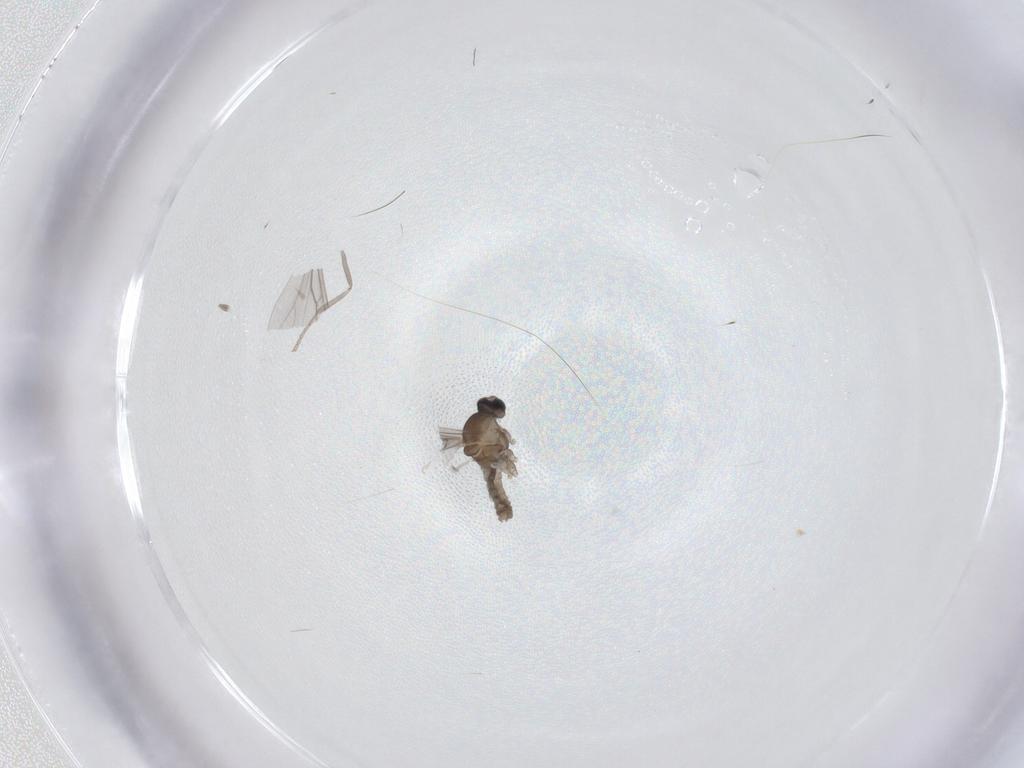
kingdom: Animalia
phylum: Arthropoda
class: Insecta
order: Diptera
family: Cecidomyiidae
